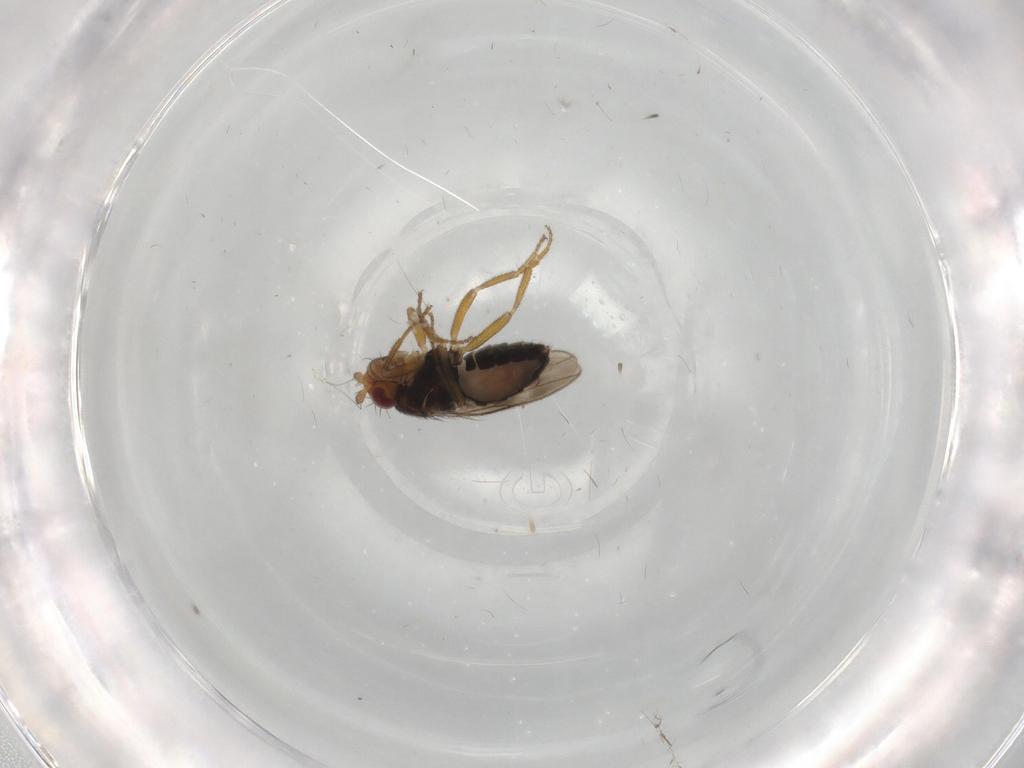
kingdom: Animalia
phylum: Arthropoda
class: Insecta
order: Diptera
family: Sphaeroceridae
